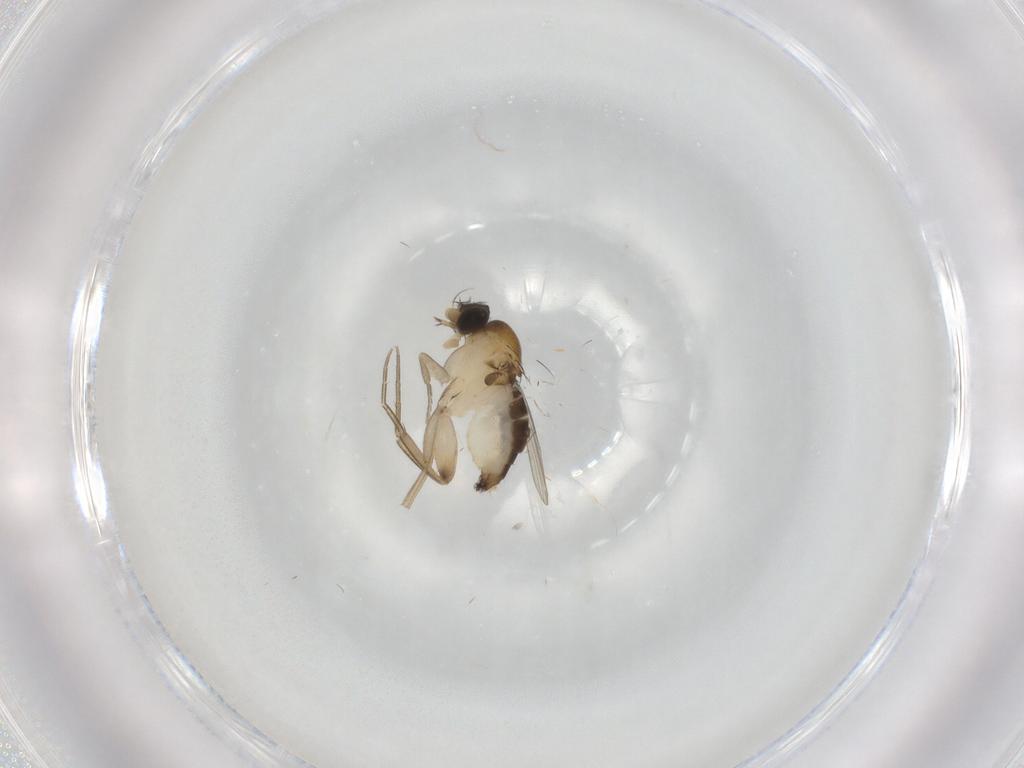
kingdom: Animalia
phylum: Arthropoda
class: Insecta
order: Diptera
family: Phoridae
